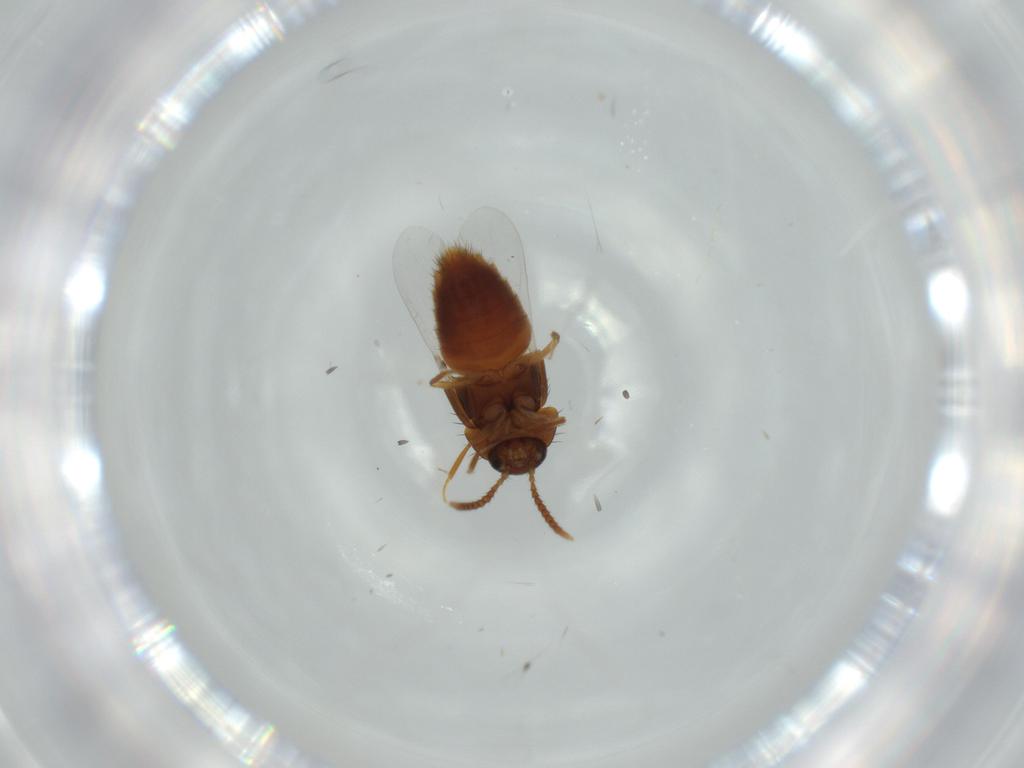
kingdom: Animalia
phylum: Arthropoda
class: Insecta
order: Coleoptera
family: Staphylinidae
